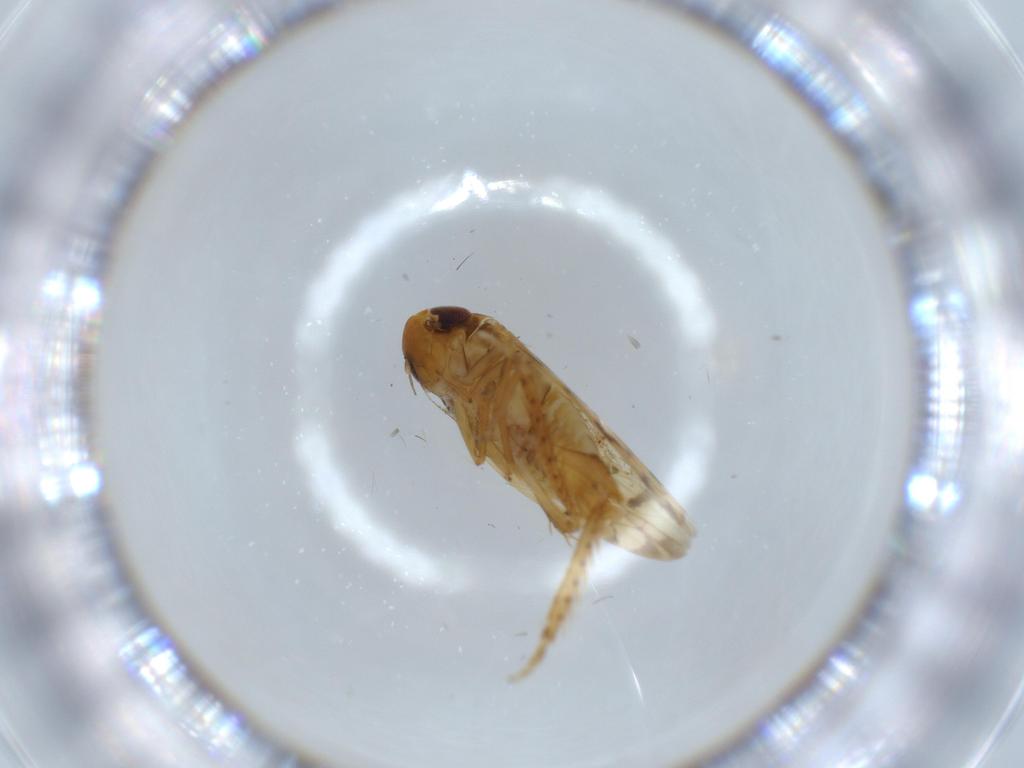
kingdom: Animalia
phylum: Arthropoda
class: Insecta
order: Hemiptera
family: Cicadellidae
